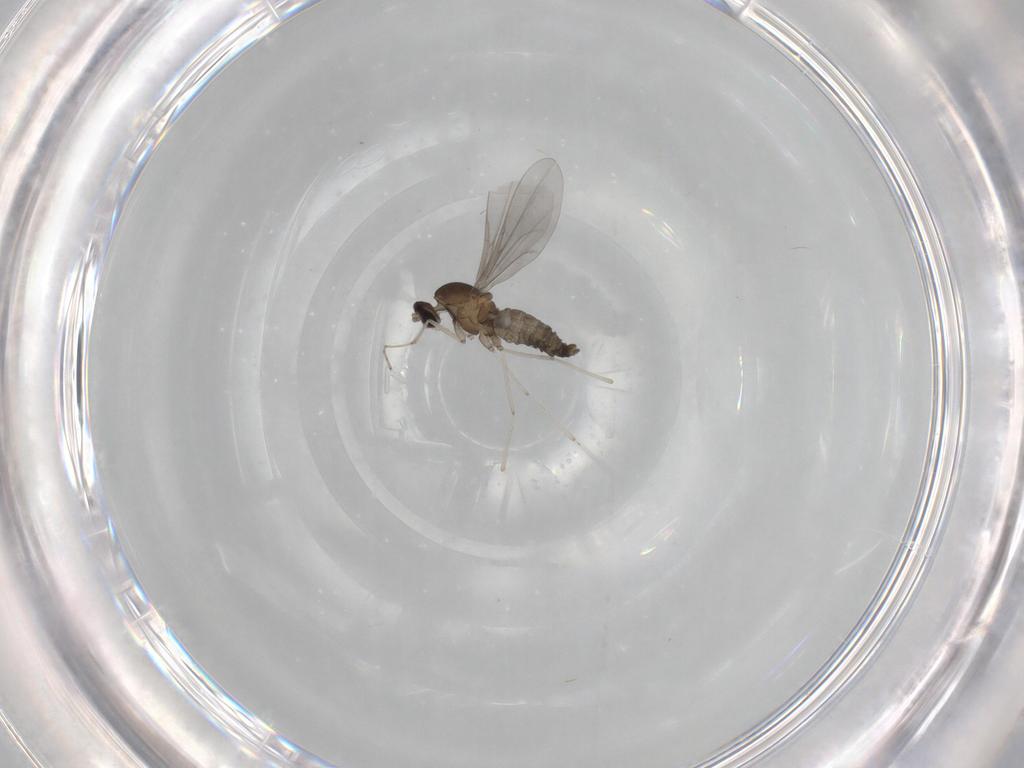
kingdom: Animalia
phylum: Arthropoda
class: Insecta
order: Diptera
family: Cecidomyiidae
